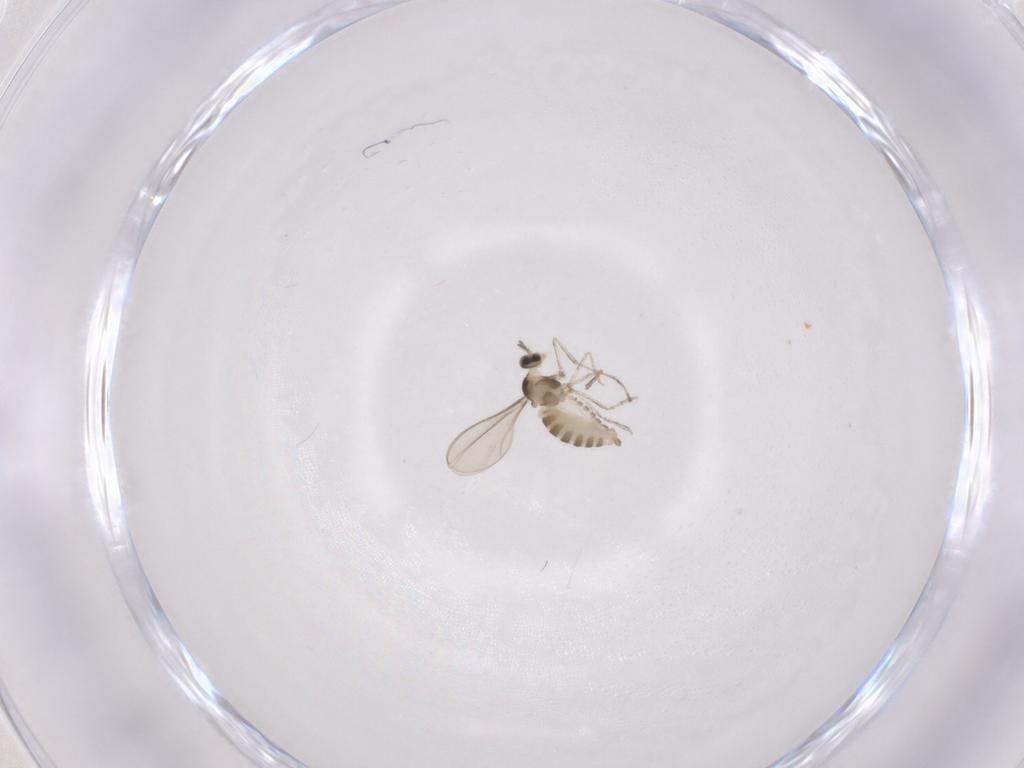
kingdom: Animalia
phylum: Arthropoda
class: Insecta
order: Diptera
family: Cecidomyiidae
